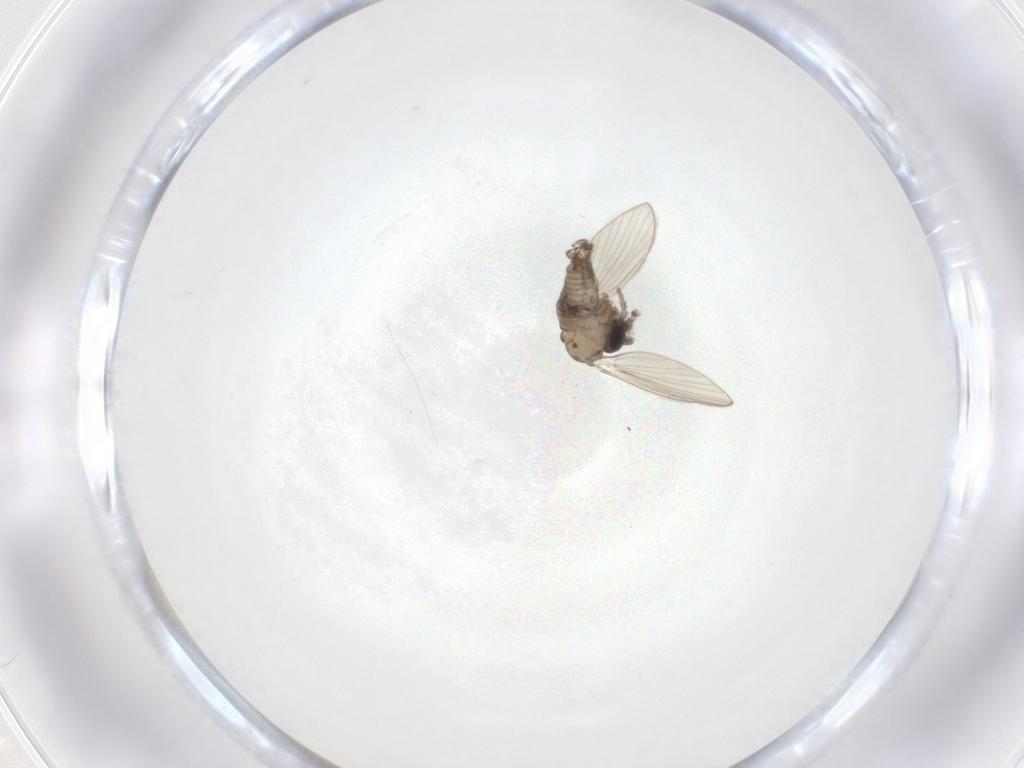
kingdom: Animalia
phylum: Arthropoda
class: Insecta
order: Diptera
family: Psychodidae
